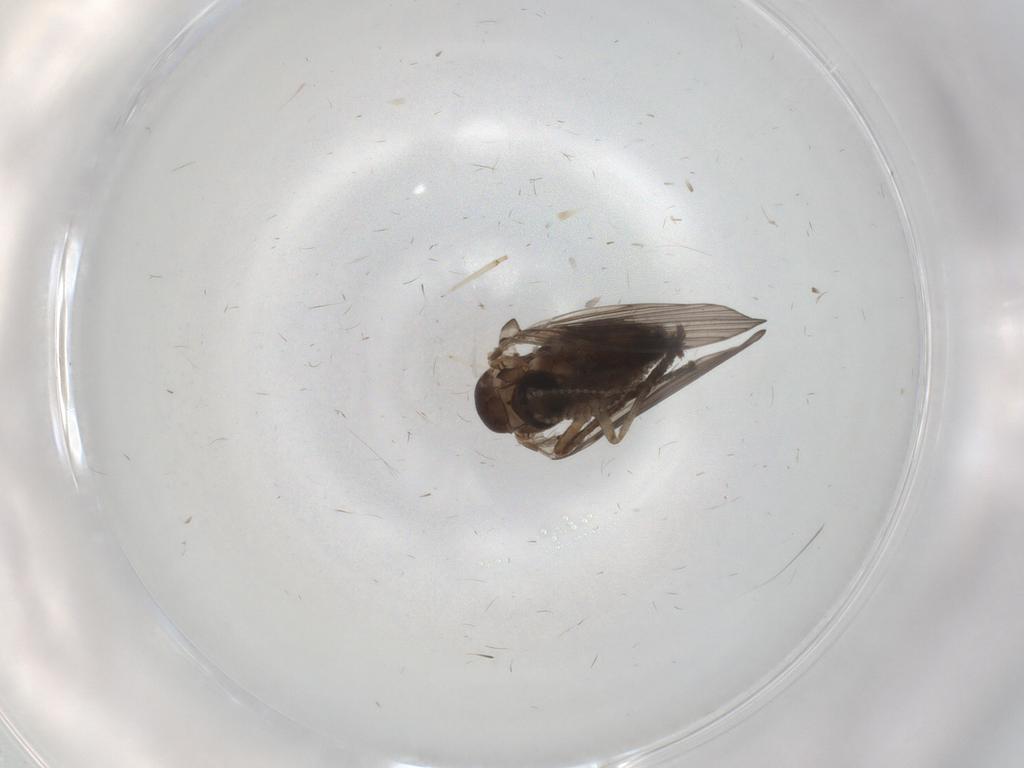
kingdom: Animalia
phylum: Arthropoda
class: Insecta
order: Diptera
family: Psychodidae
